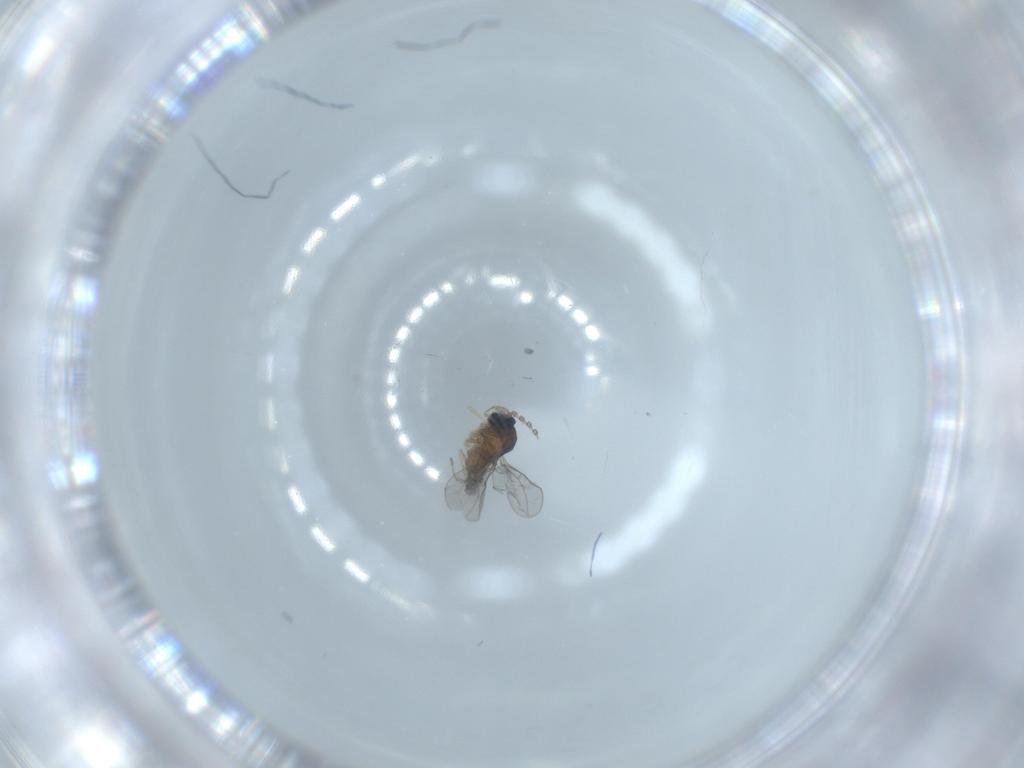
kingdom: Animalia
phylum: Arthropoda
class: Insecta
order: Diptera
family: Cecidomyiidae
